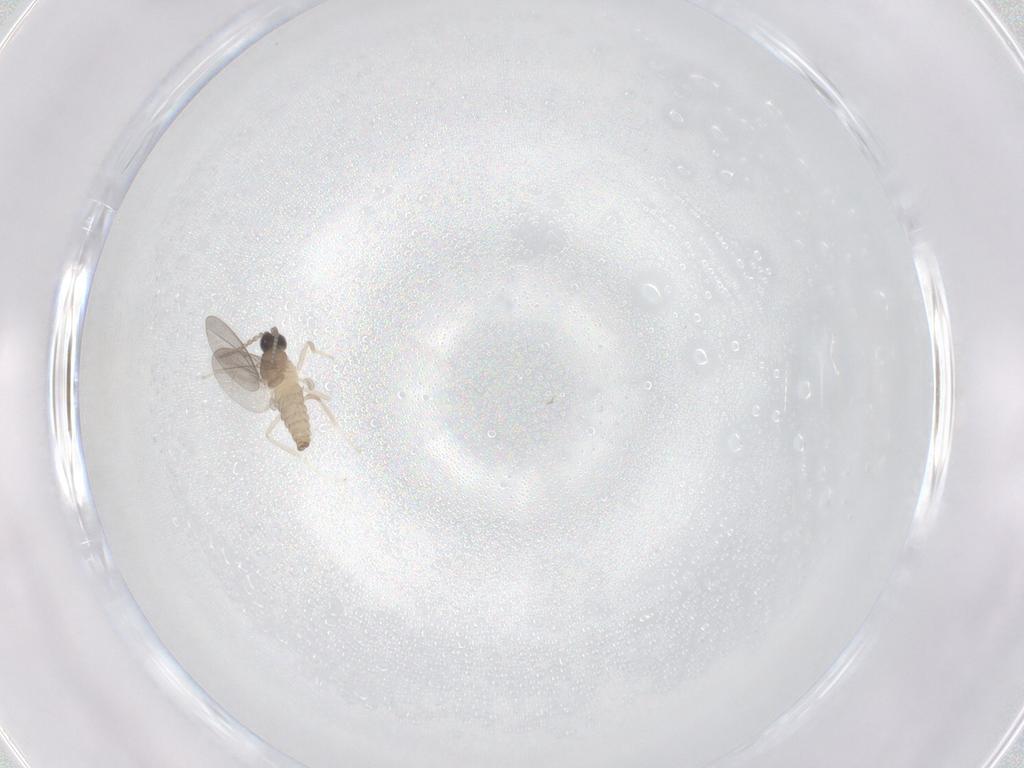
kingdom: Animalia
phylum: Arthropoda
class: Insecta
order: Diptera
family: Cecidomyiidae
